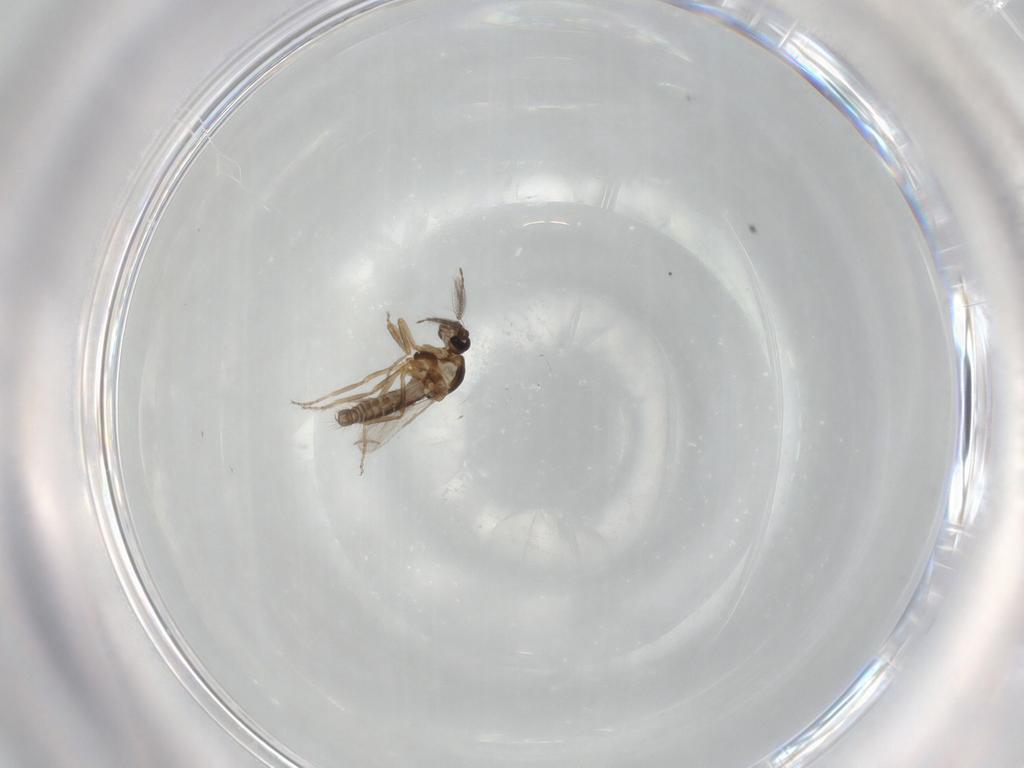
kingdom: Animalia
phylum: Arthropoda
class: Insecta
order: Diptera
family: Ceratopogonidae
